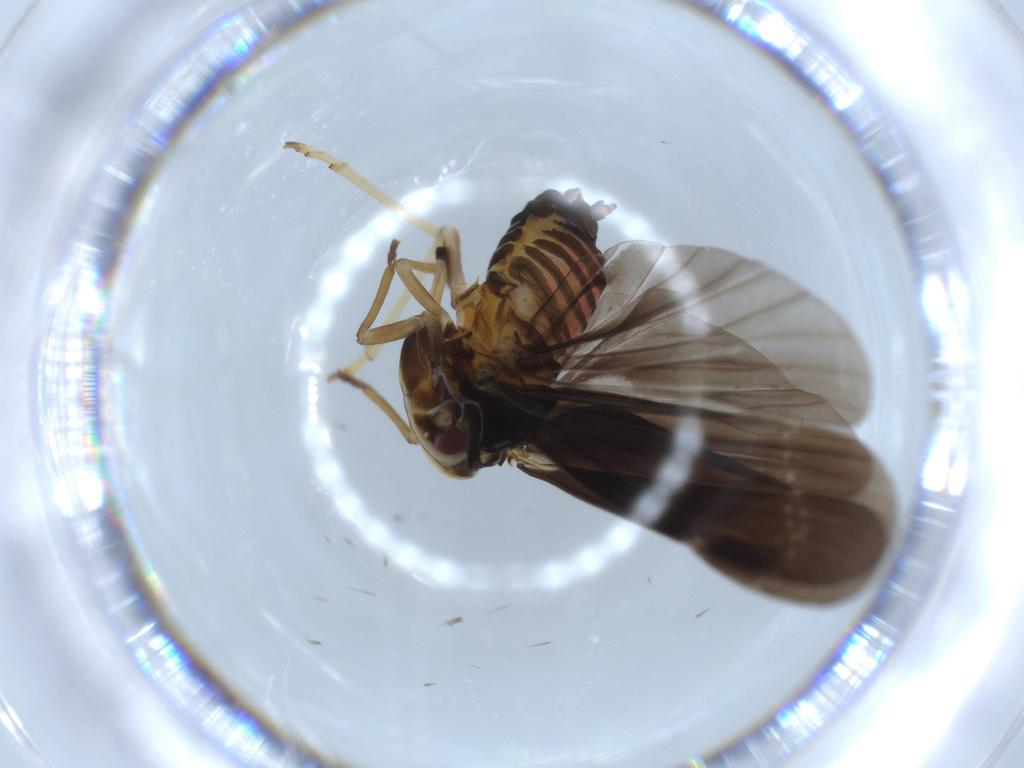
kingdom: Animalia
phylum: Arthropoda
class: Insecta
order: Hemiptera
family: Derbidae
